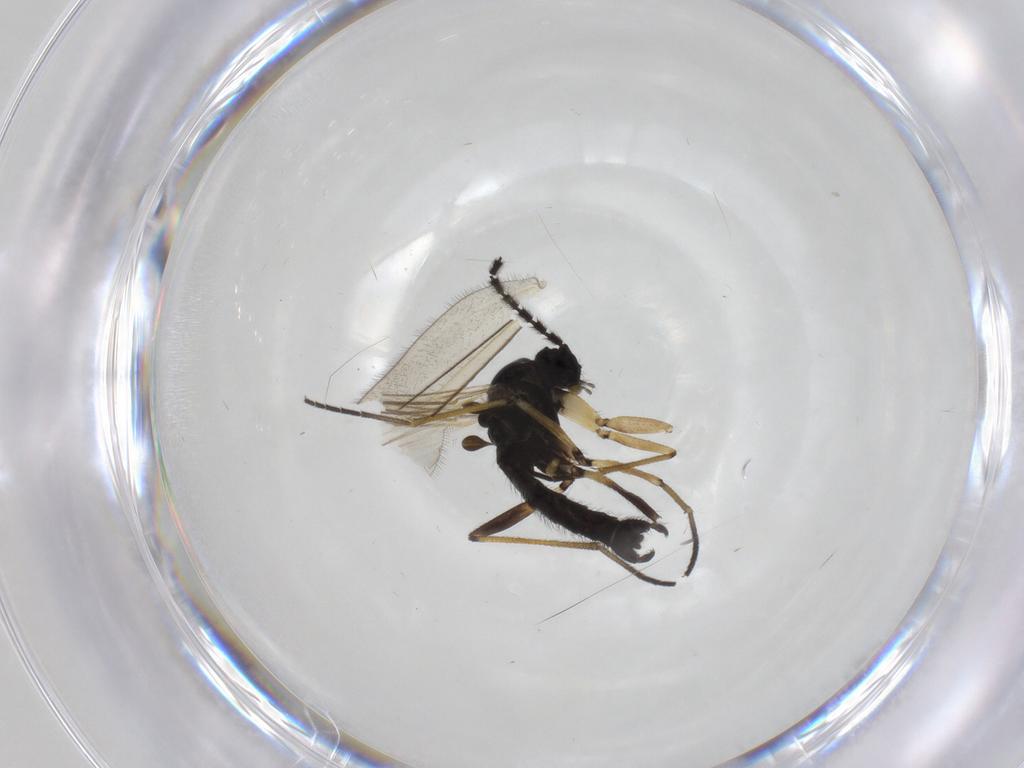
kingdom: Animalia
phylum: Arthropoda
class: Insecta
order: Diptera
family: Sciaridae
